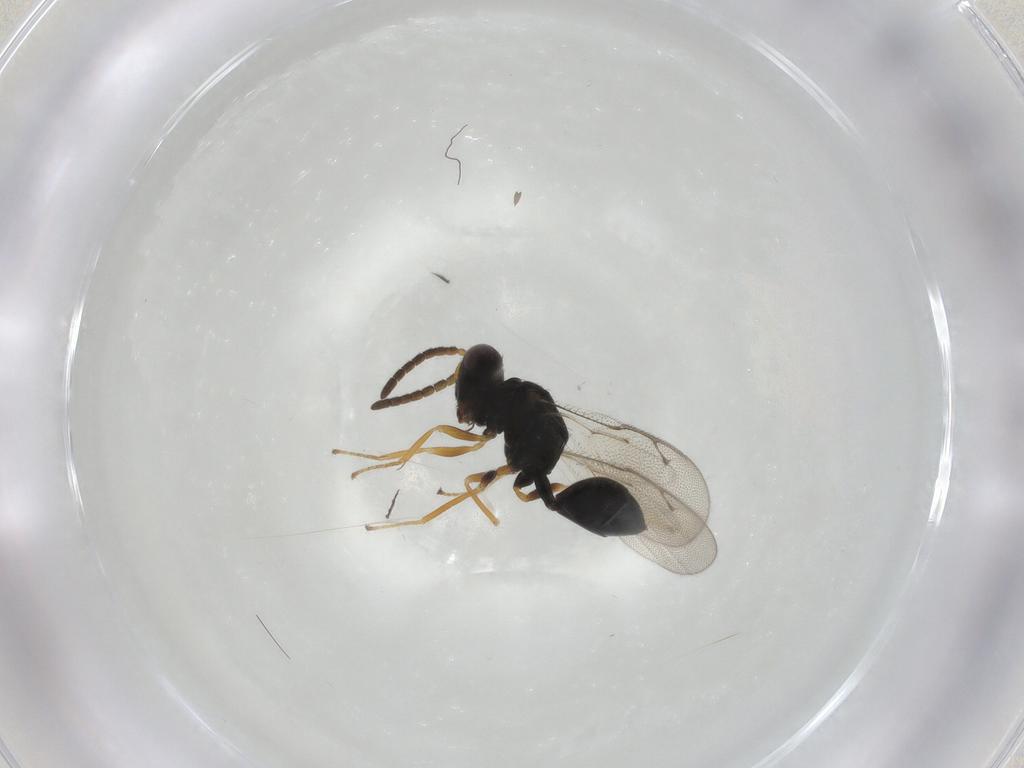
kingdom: Animalia
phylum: Arthropoda
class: Insecta
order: Hymenoptera
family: Pteromalidae
